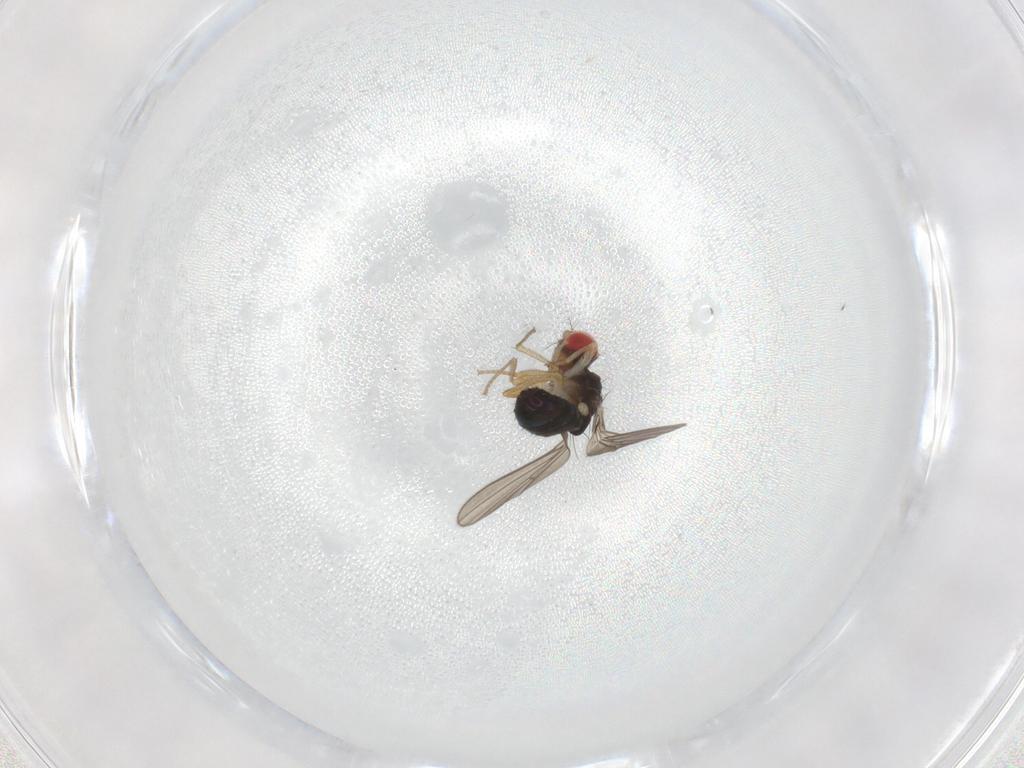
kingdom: Animalia
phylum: Arthropoda
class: Insecta
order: Diptera
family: Drosophilidae
